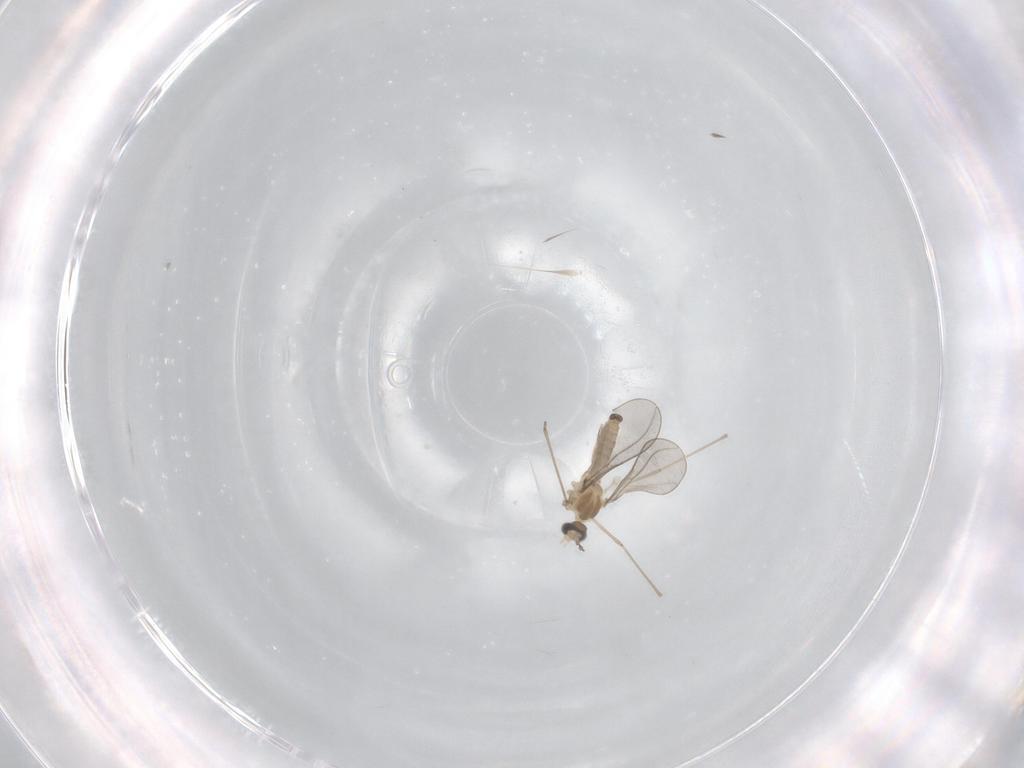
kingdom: Animalia
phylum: Arthropoda
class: Insecta
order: Diptera
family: Cecidomyiidae
